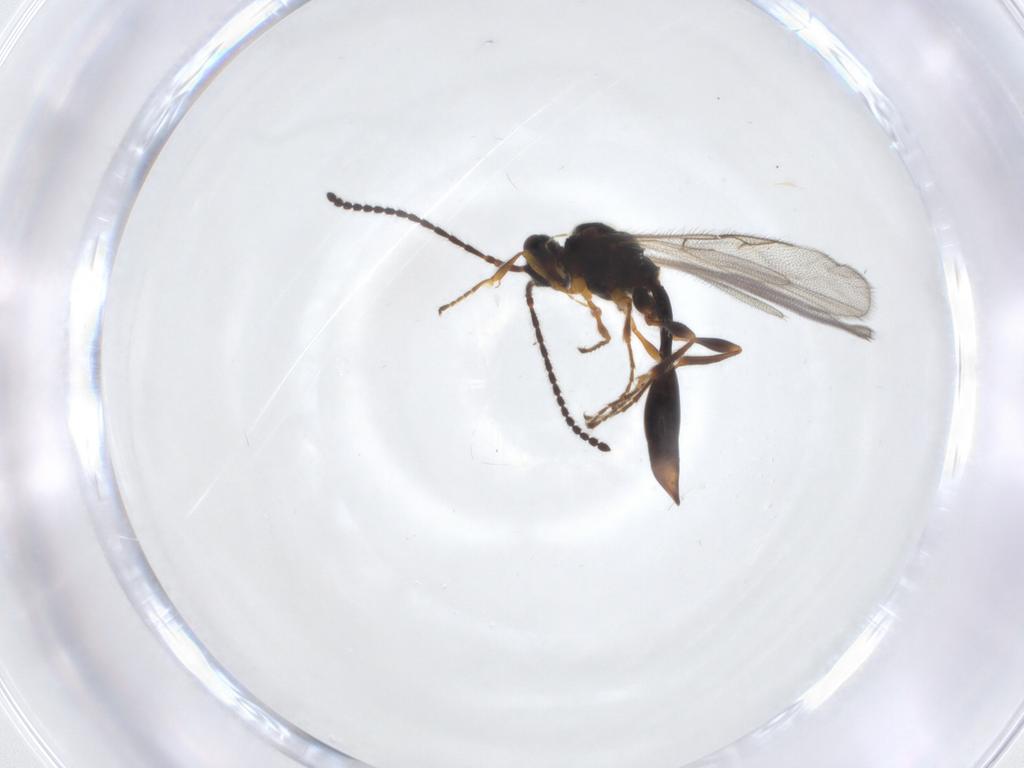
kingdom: Animalia
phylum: Arthropoda
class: Insecta
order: Hymenoptera
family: Diapriidae
